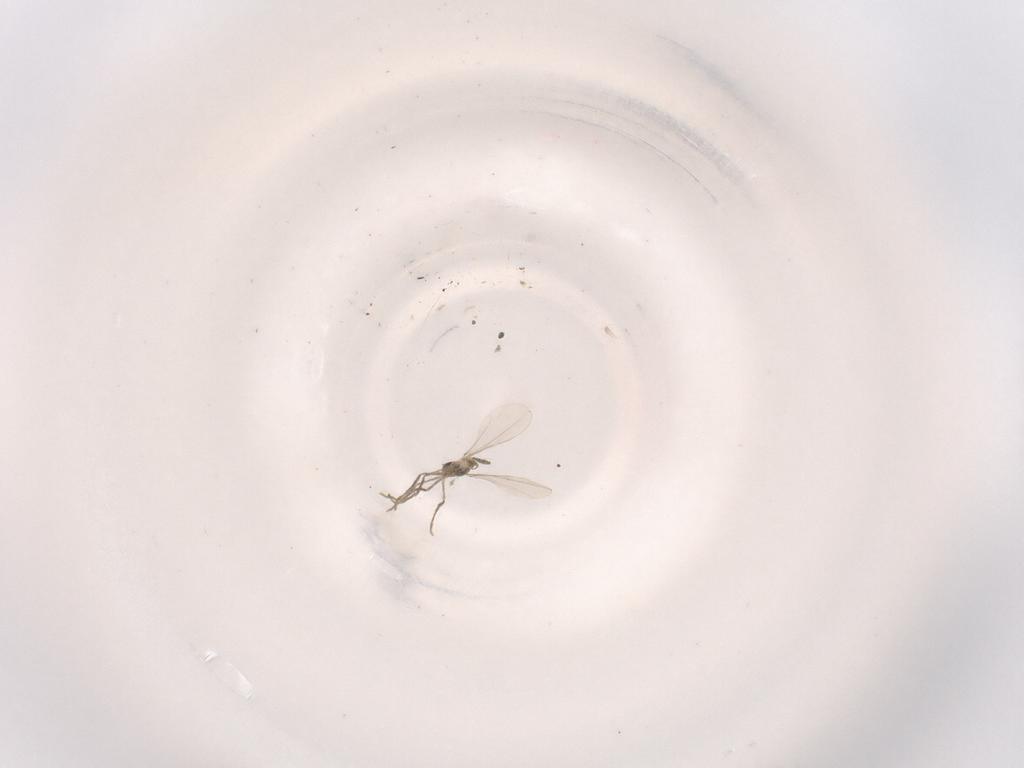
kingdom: Animalia
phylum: Arthropoda
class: Insecta
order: Diptera
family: Cecidomyiidae
